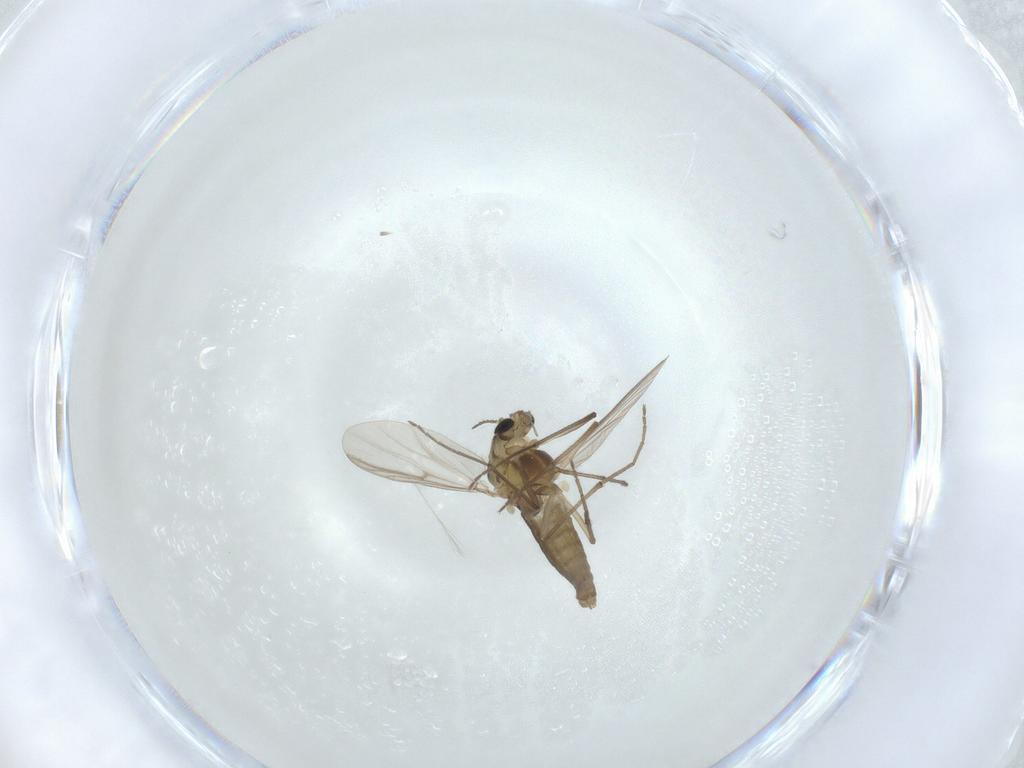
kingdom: Animalia
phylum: Arthropoda
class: Insecta
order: Diptera
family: Chironomidae
